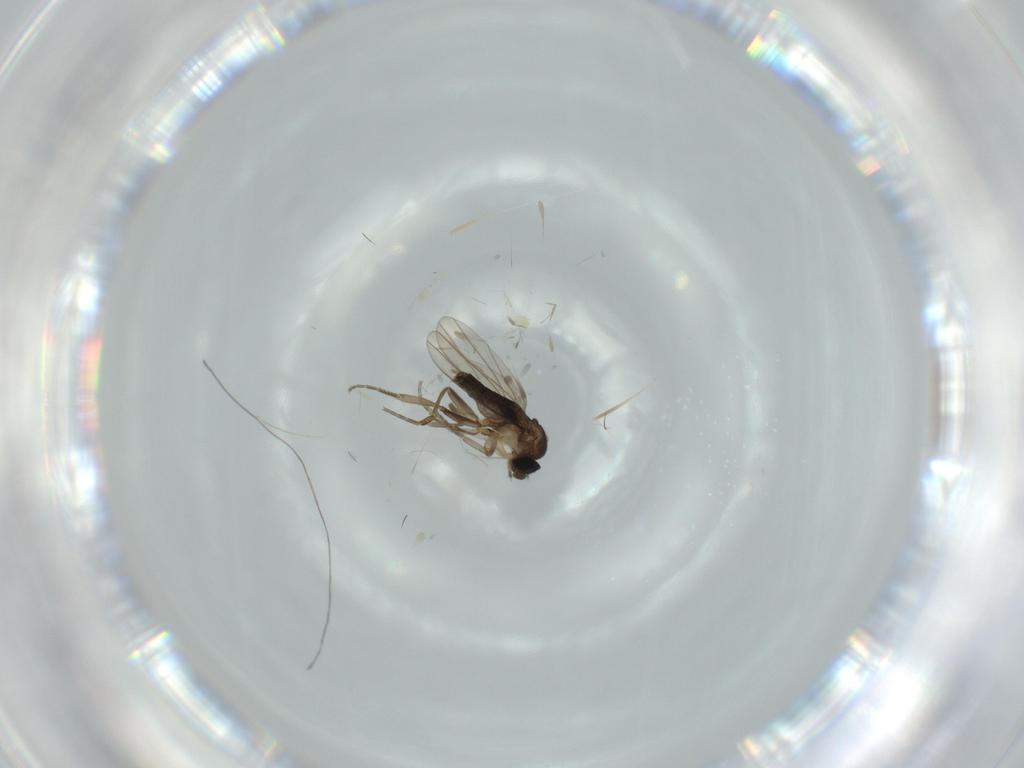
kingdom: Animalia
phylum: Arthropoda
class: Insecta
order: Diptera
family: Phoridae
